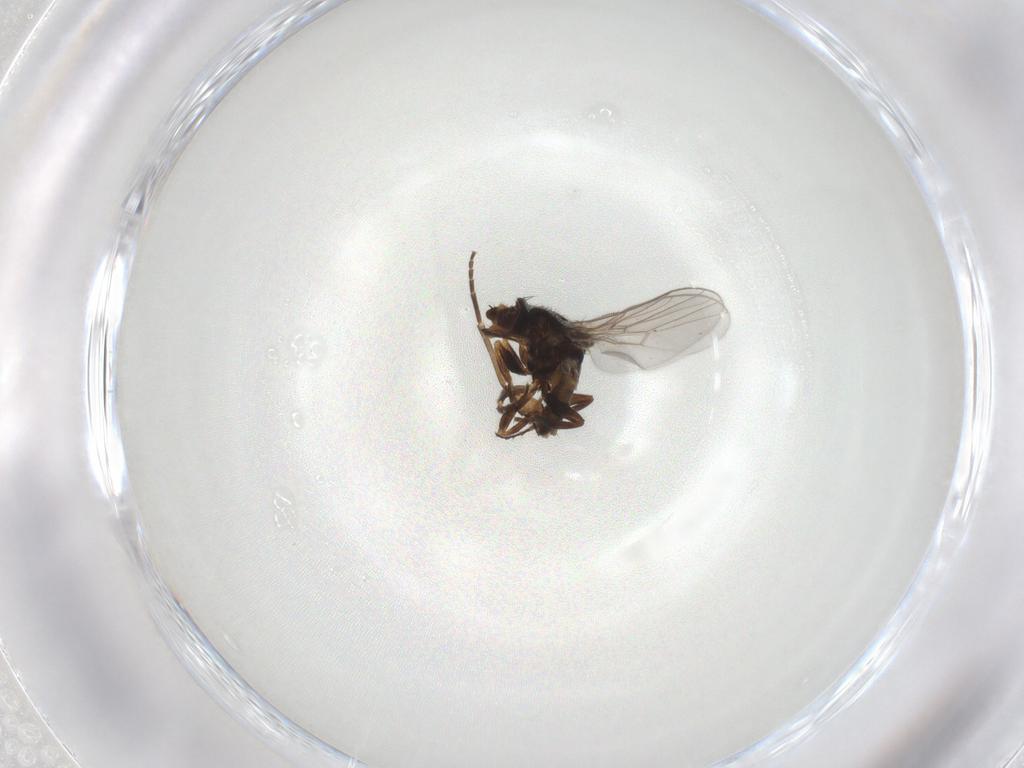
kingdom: Animalia
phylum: Arthropoda
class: Insecta
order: Diptera
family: Chloropidae
